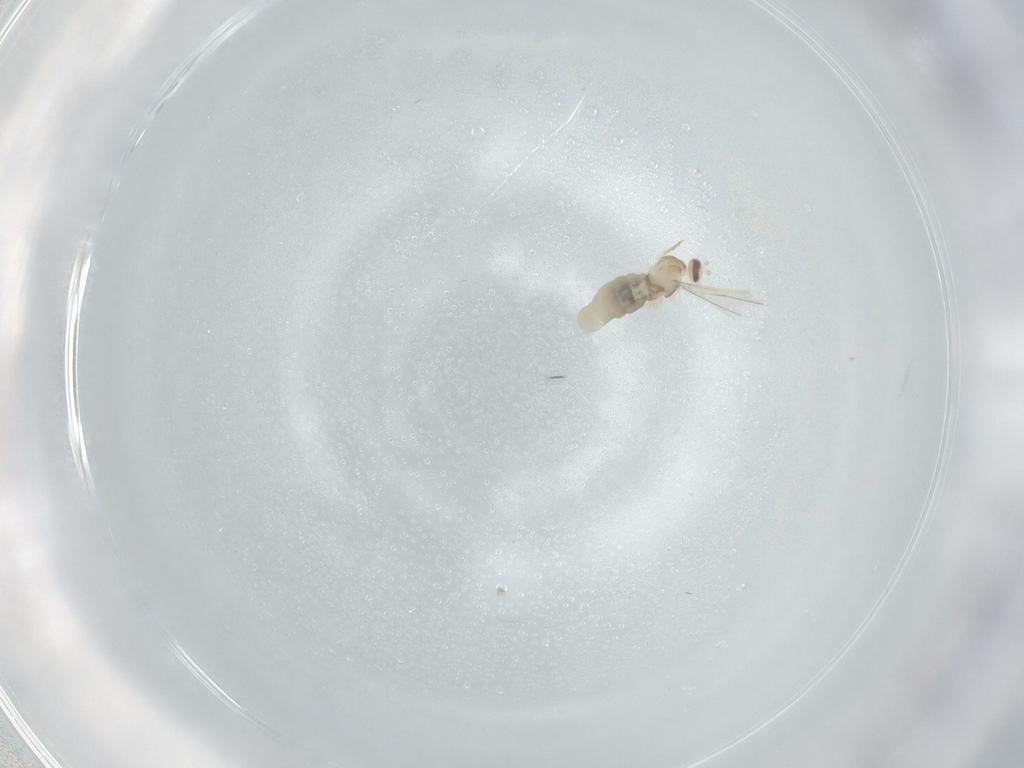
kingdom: Animalia
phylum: Arthropoda
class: Insecta
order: Diptera
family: Cecidomyiidae
